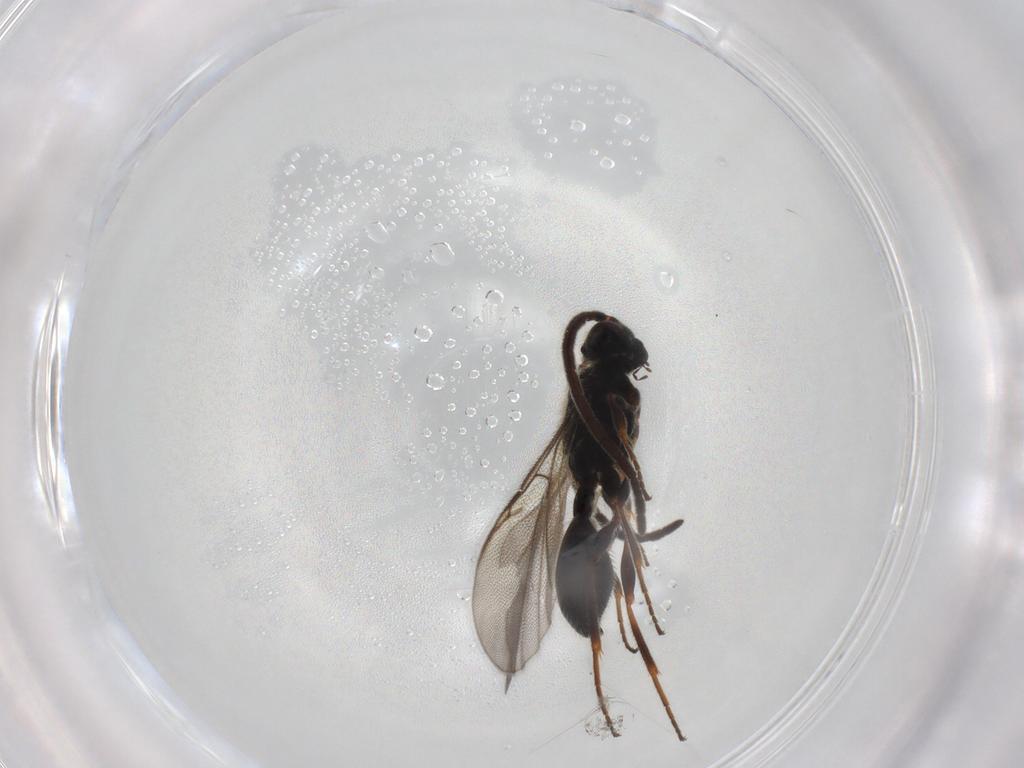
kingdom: Animalia
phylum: Arthropoda
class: Insecta
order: Hymenoptera
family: Diapriidae
